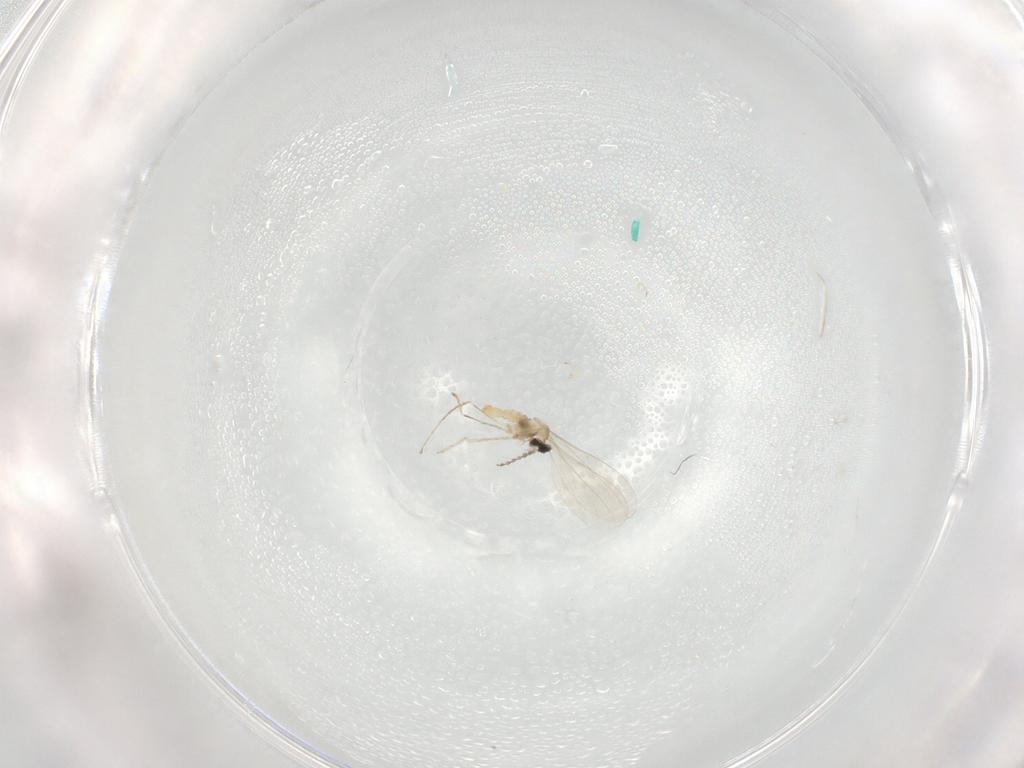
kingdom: Animalia
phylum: Arthropoda
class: Insecta
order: Diptera
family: Cecidomyiidae
